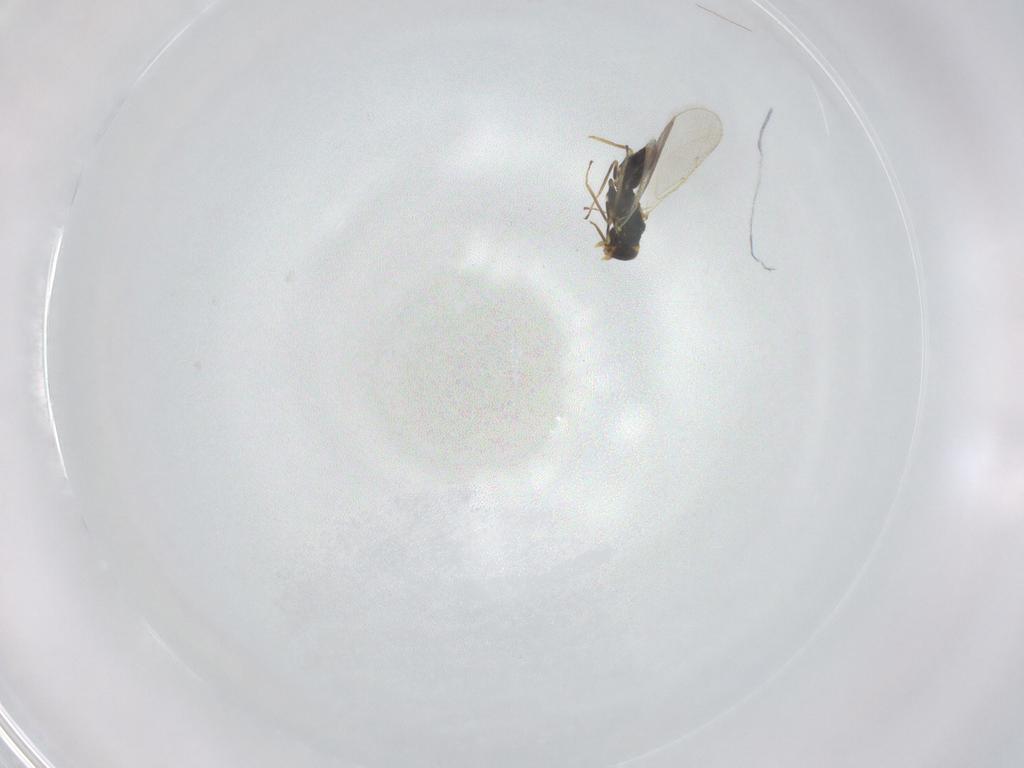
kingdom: Animalia
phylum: Arthropoda
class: Insecta
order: Hymenoptera
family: Eulophidae
